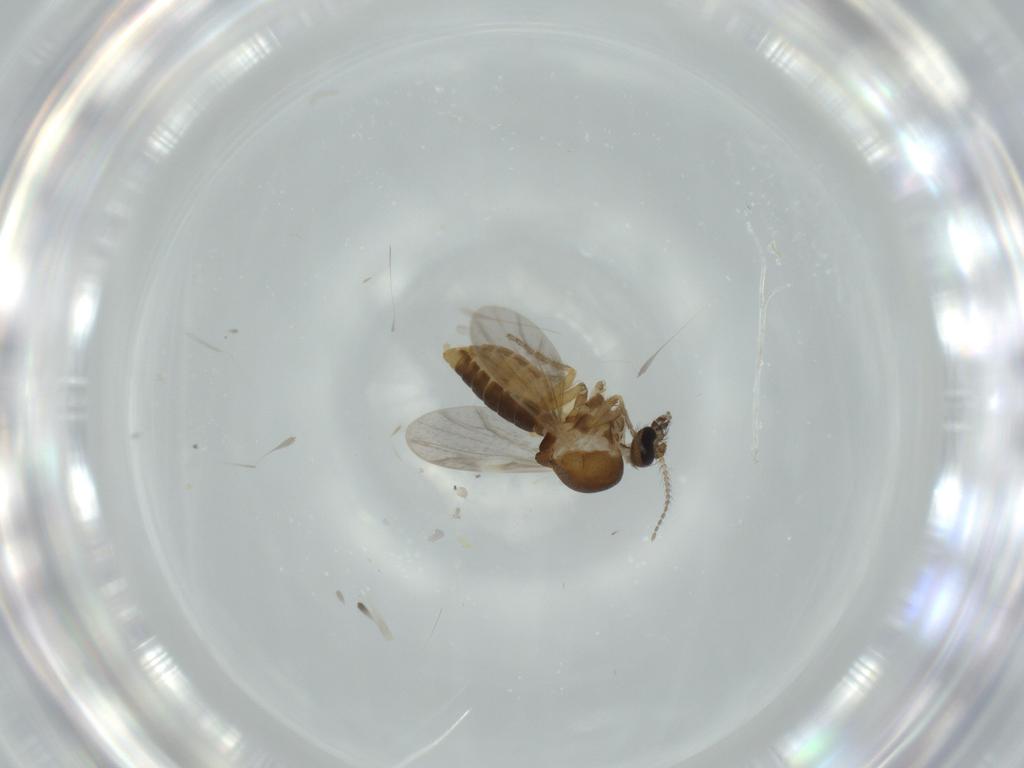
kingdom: Animalia
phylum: Arthropoda
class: Insecta
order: Diptera
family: Ceratopogonidae
